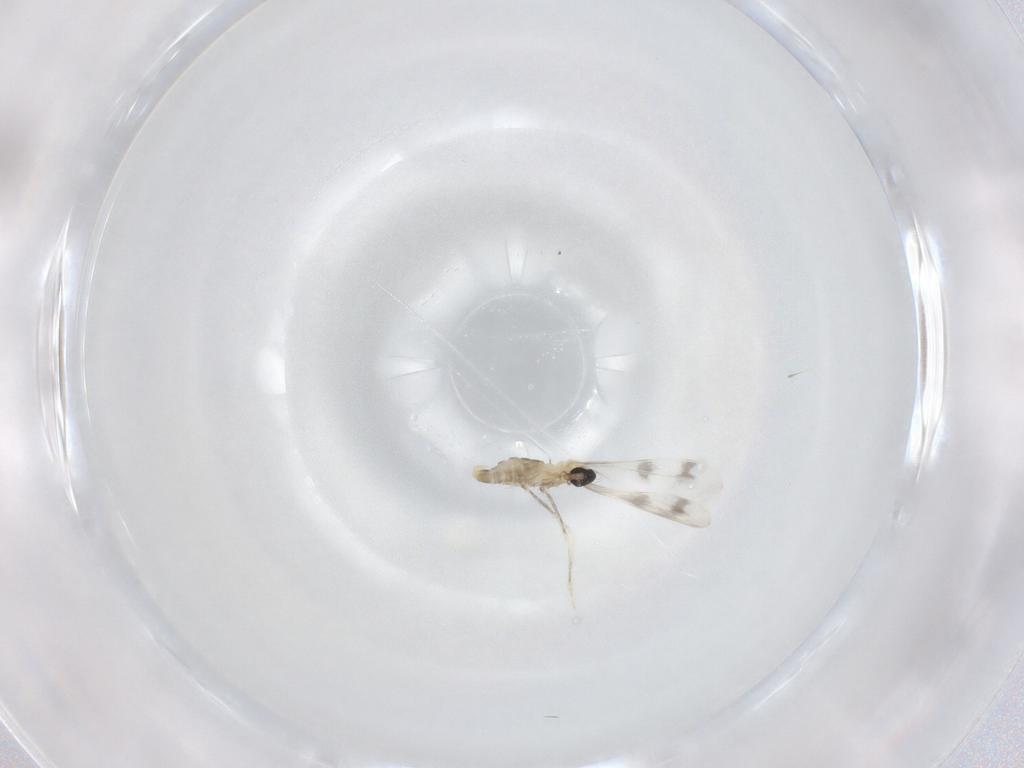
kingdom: Animalia
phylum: Arthropoda
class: Insecta
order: Diptera
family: Cecidomyiidae
